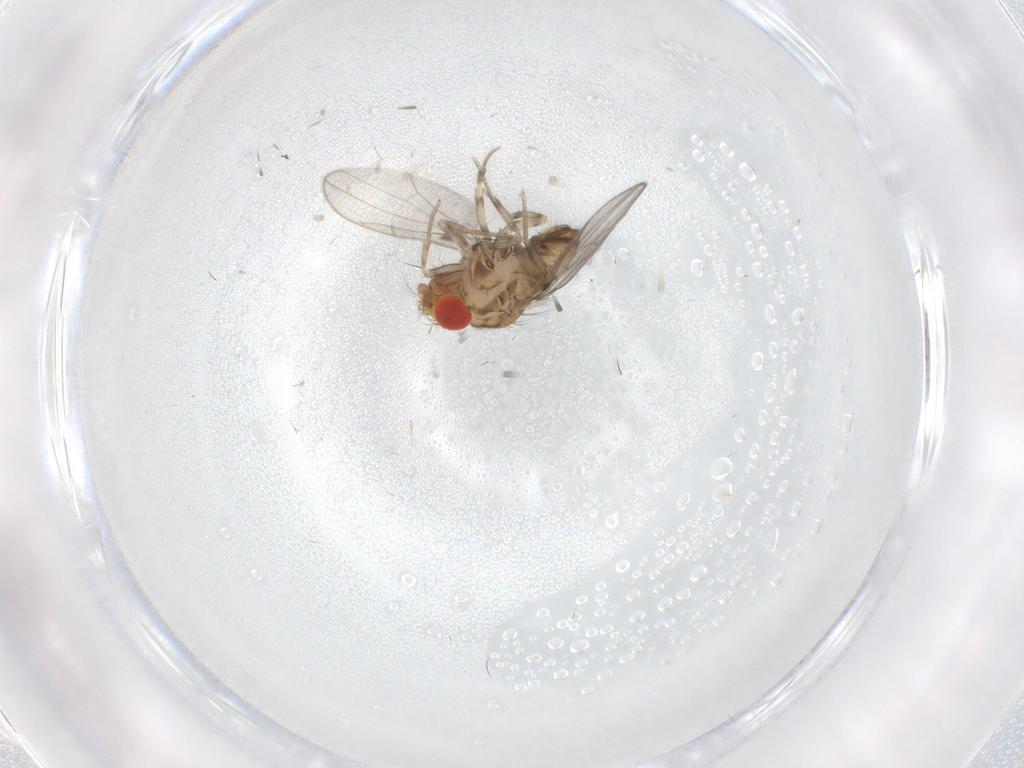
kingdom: Animalia
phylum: Arthropoda
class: Insecta
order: Diptera
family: Drosophilidae
